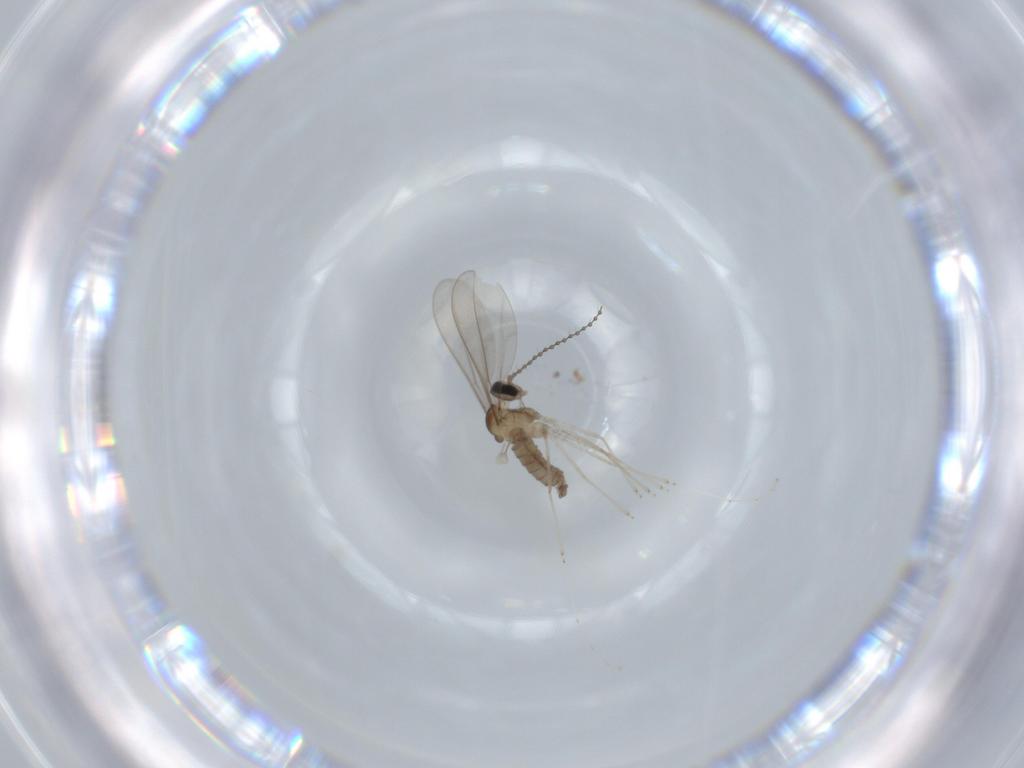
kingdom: Animalia
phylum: Arthropoda
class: Insecta
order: Diptera
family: Cecidomyiidae
